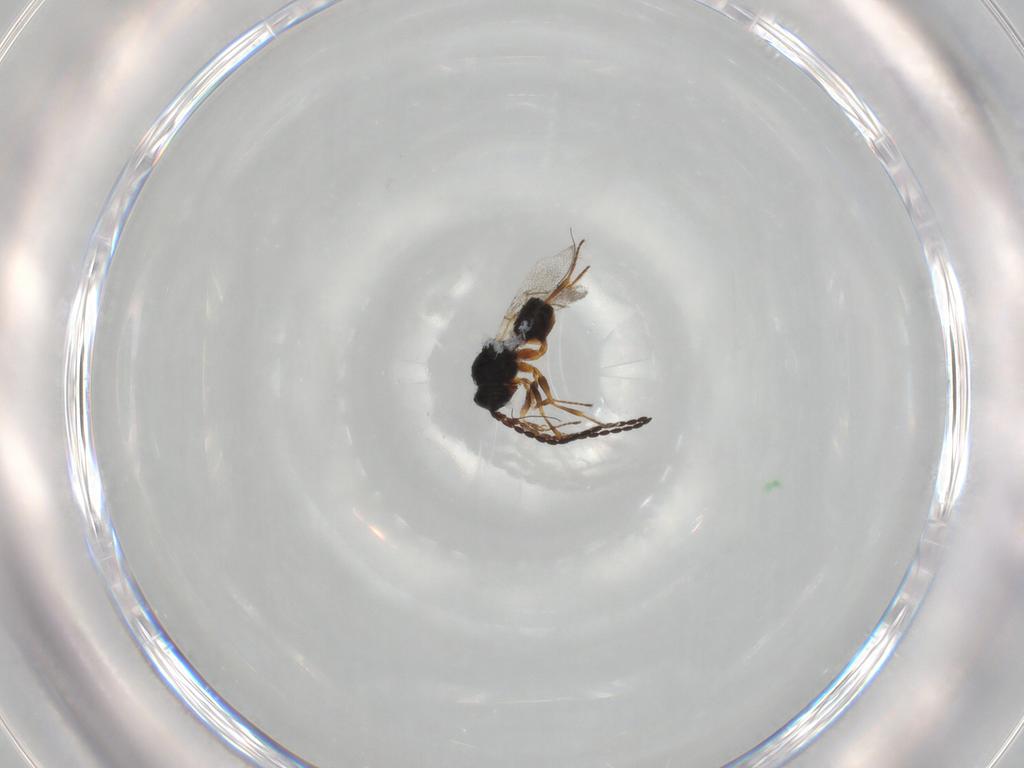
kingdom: Animalia
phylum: Arthropoda
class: Insecta
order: Hymenoptera
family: Figitidae
